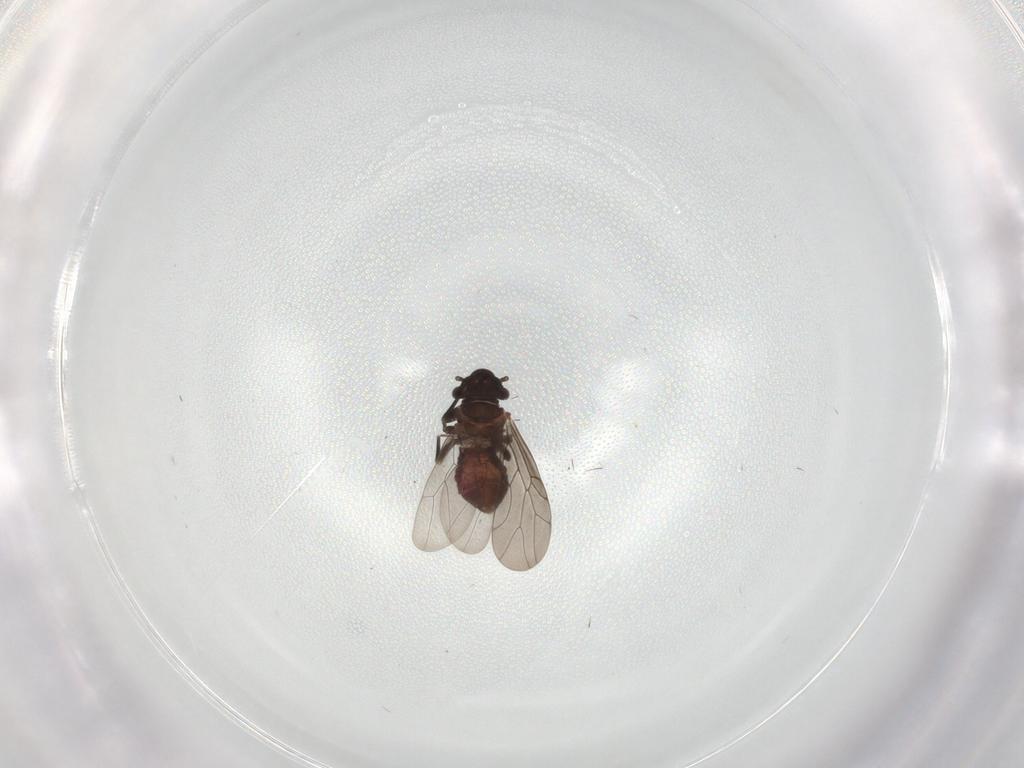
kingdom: Animalia
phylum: Arthropoda
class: Insecta
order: Psocodea
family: Lepidopsocidae
